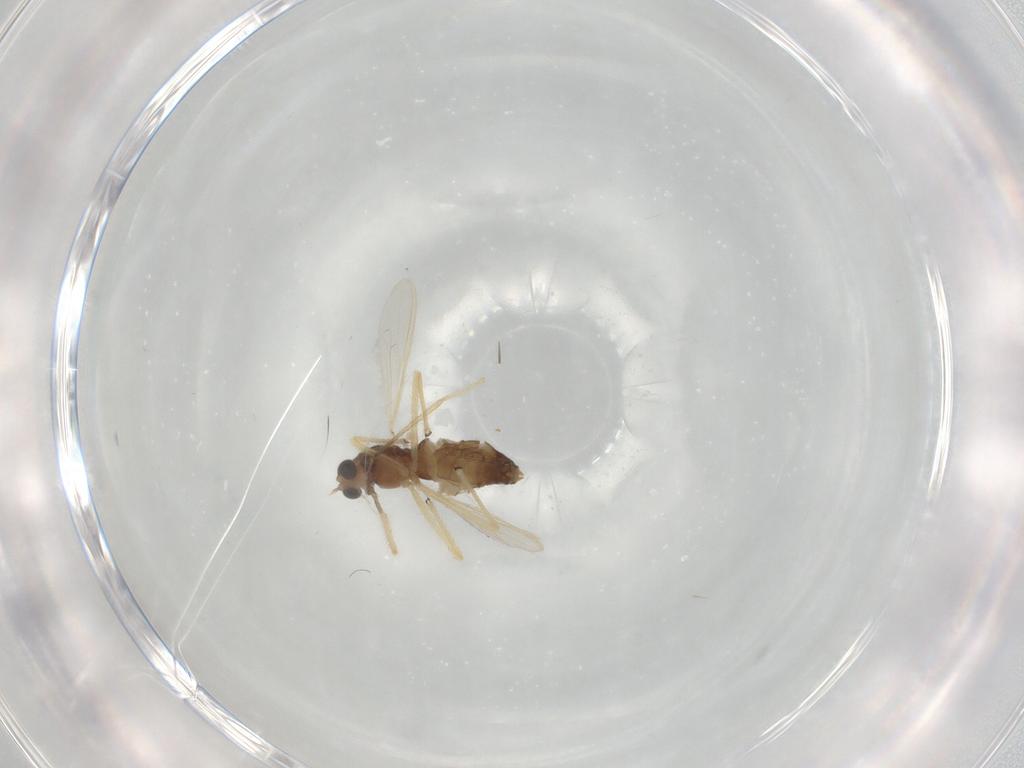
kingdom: Animalia
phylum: Arthropoda
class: Insecta
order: Diptera
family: Chironomidae
